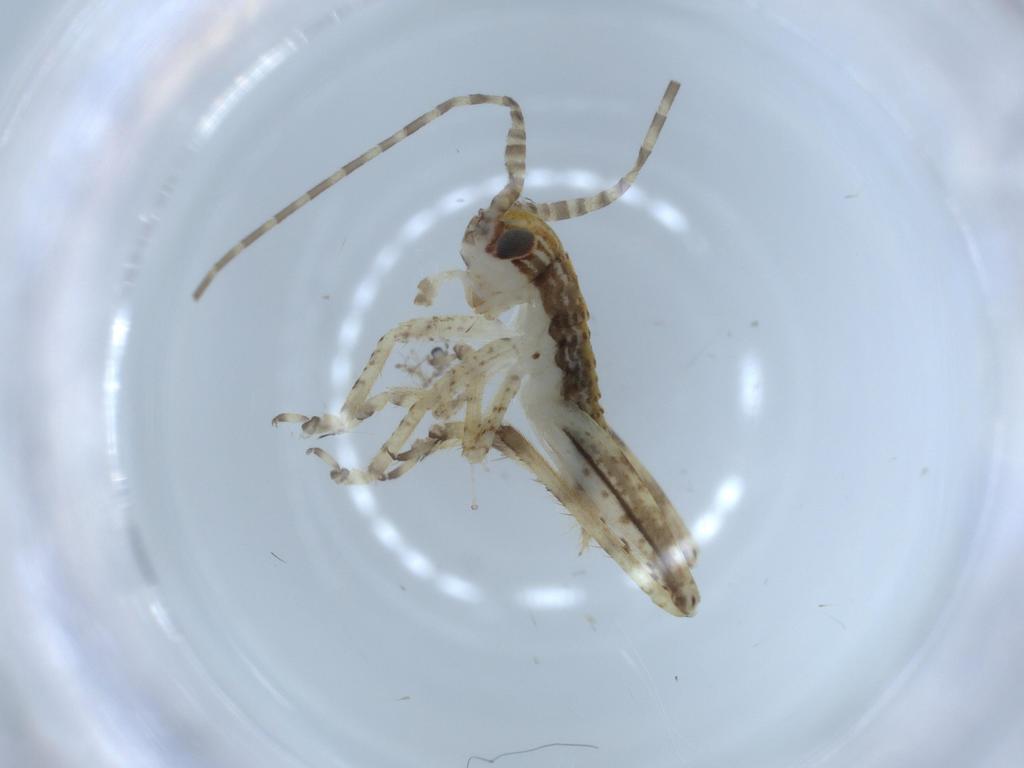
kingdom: Animalia
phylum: Arthropoda
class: Insecta
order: Orthoptera
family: Gryllidae
